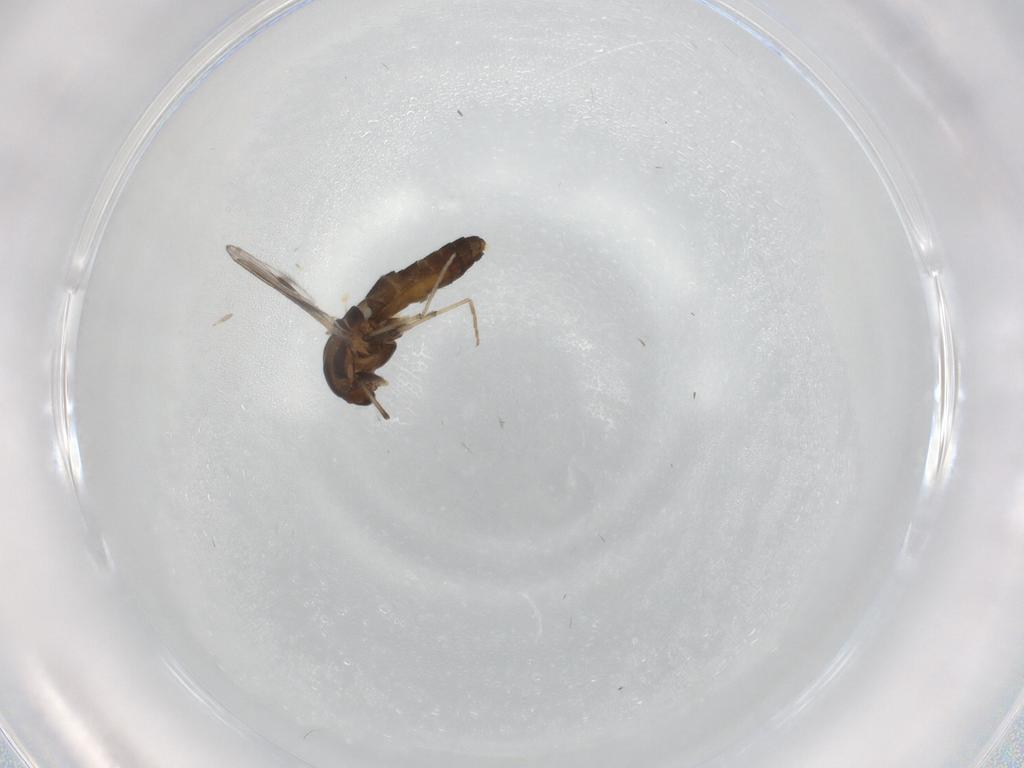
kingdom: Animalia
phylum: Arthropoda
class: Insecta
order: Diptera
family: Chironomidae
